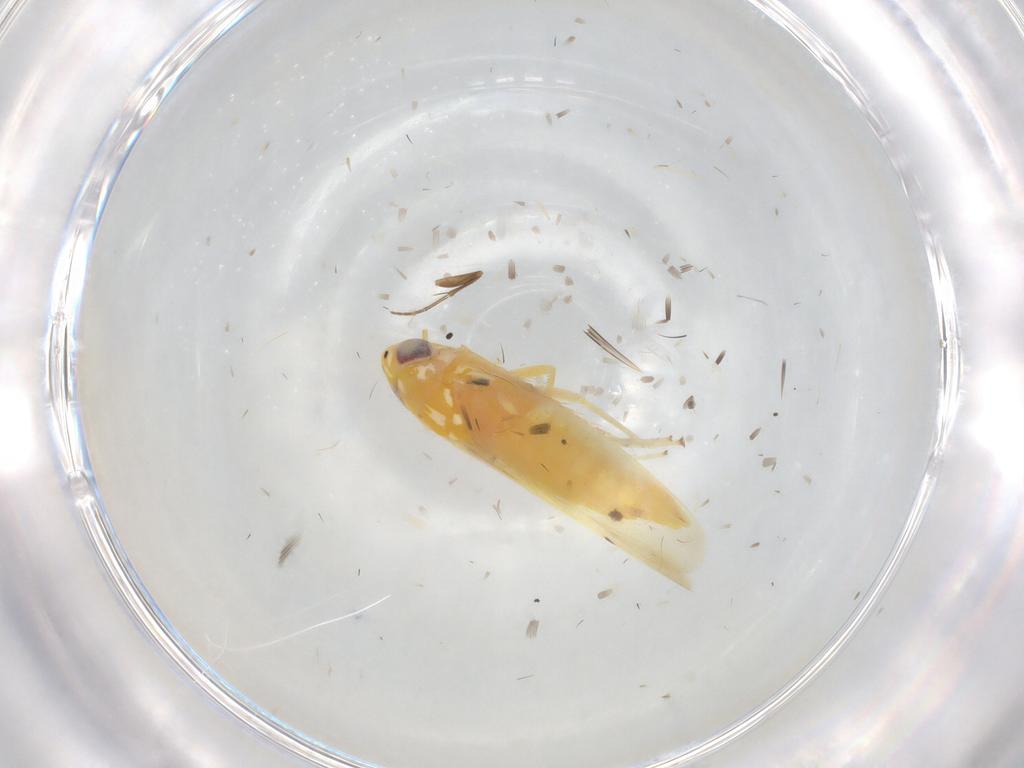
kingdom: Animalia
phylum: Arthropoda
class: Insecta
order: Hemiptera
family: Cicadellidae
